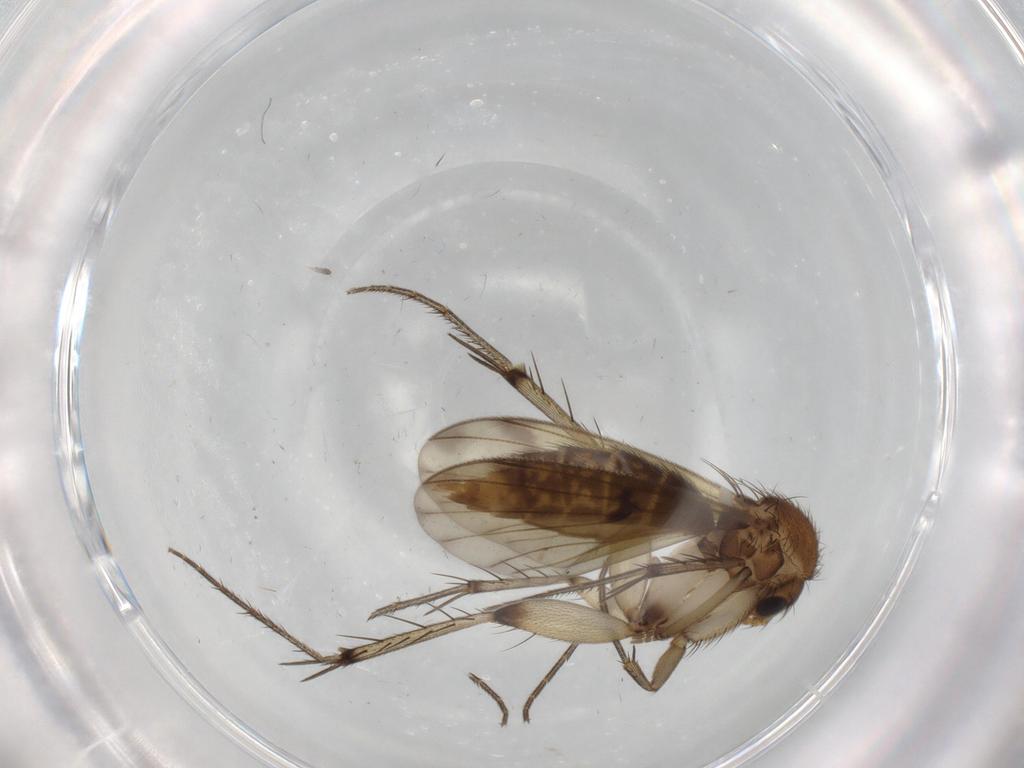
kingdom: Animalia
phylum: Arthropoda
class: Insecta
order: Diptera
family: Mycetophilidae
